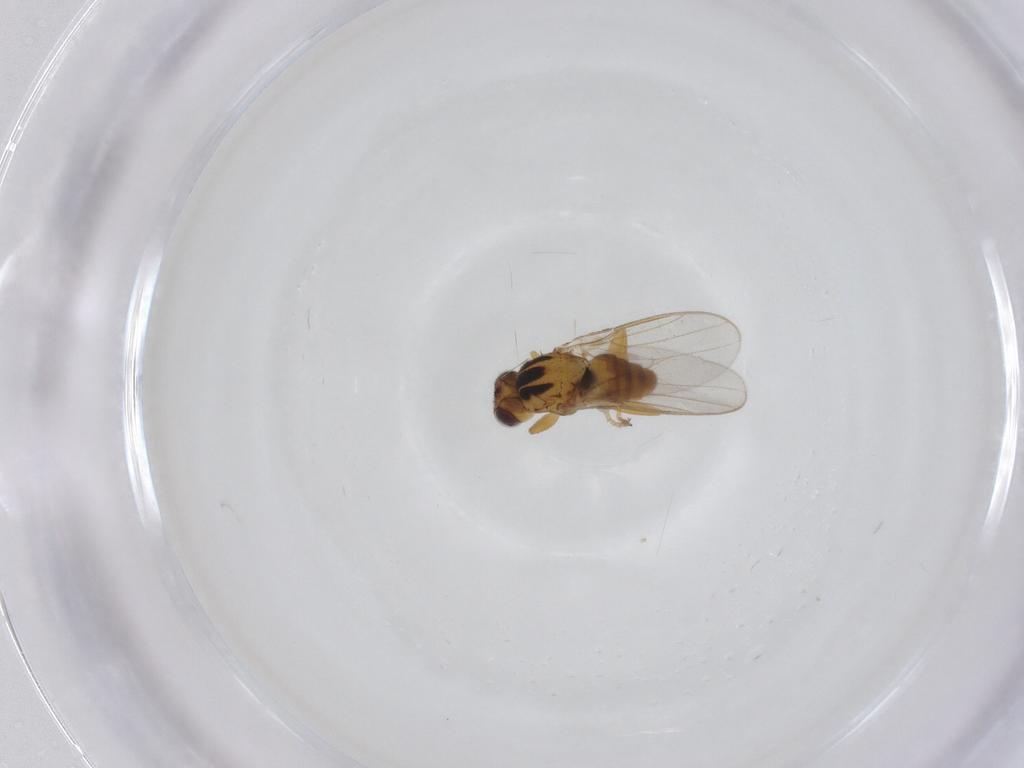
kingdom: Animalia
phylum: Arthropoda
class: Insecta
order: Diptera
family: Chloropidae
